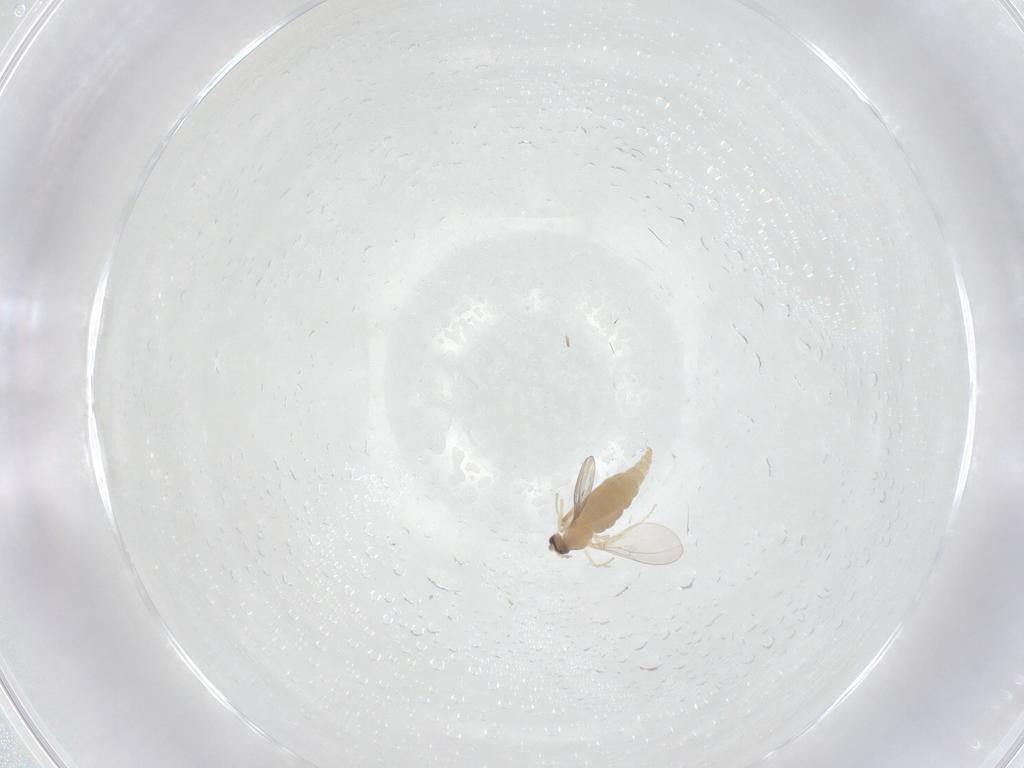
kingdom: Animalia
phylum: Arthropoda
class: Insecta
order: Diptera
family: Cecidomyiidae
